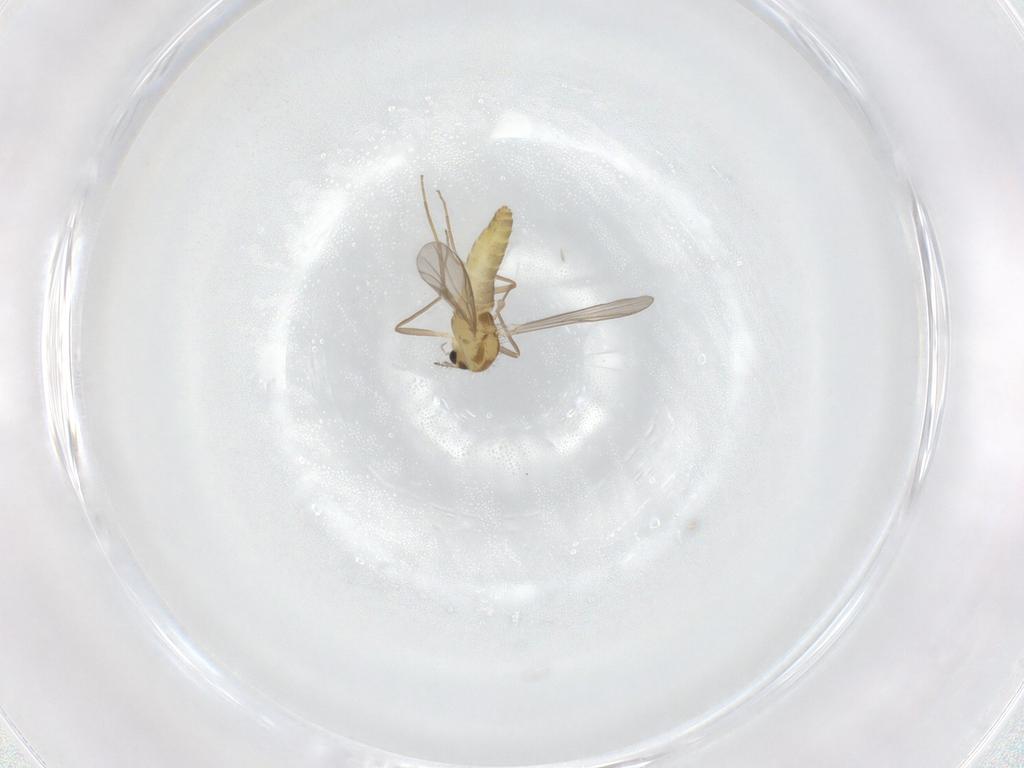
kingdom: Animalia
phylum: Arthropoda
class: Insecta
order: Diptera
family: Chironomidae
